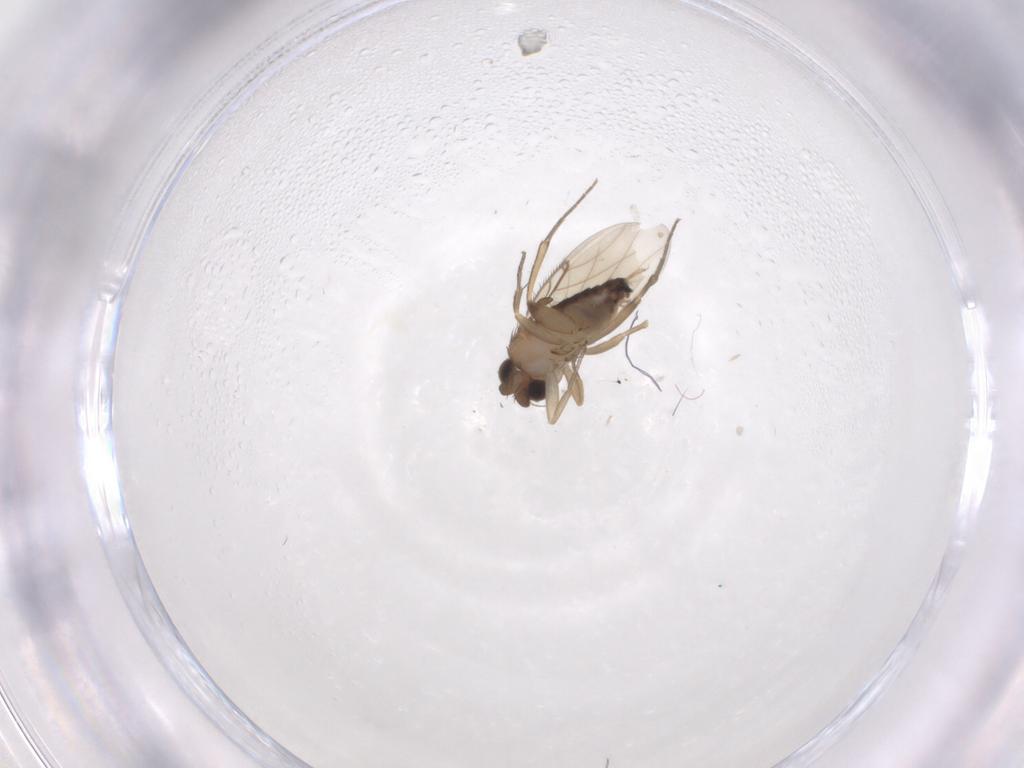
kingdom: Animalia
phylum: Arthropoda
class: Insecta
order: Diptera
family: Phoridae
